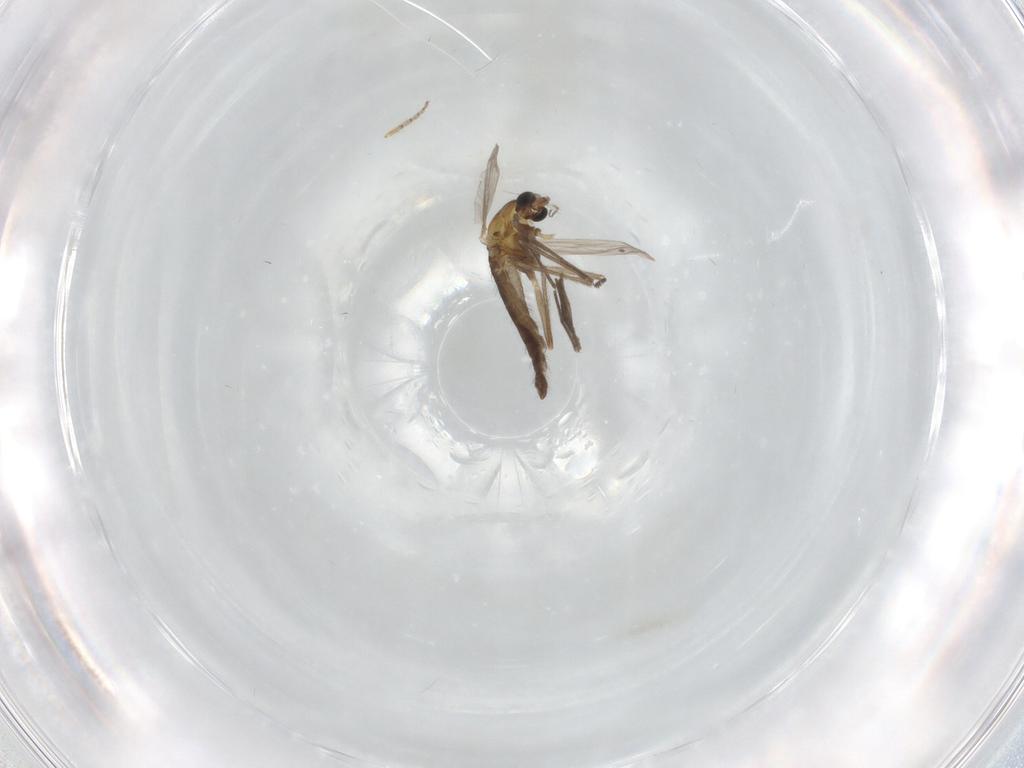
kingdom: Animalia
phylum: Arthropoda
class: Insecta
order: Diptera
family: Chironomidae
